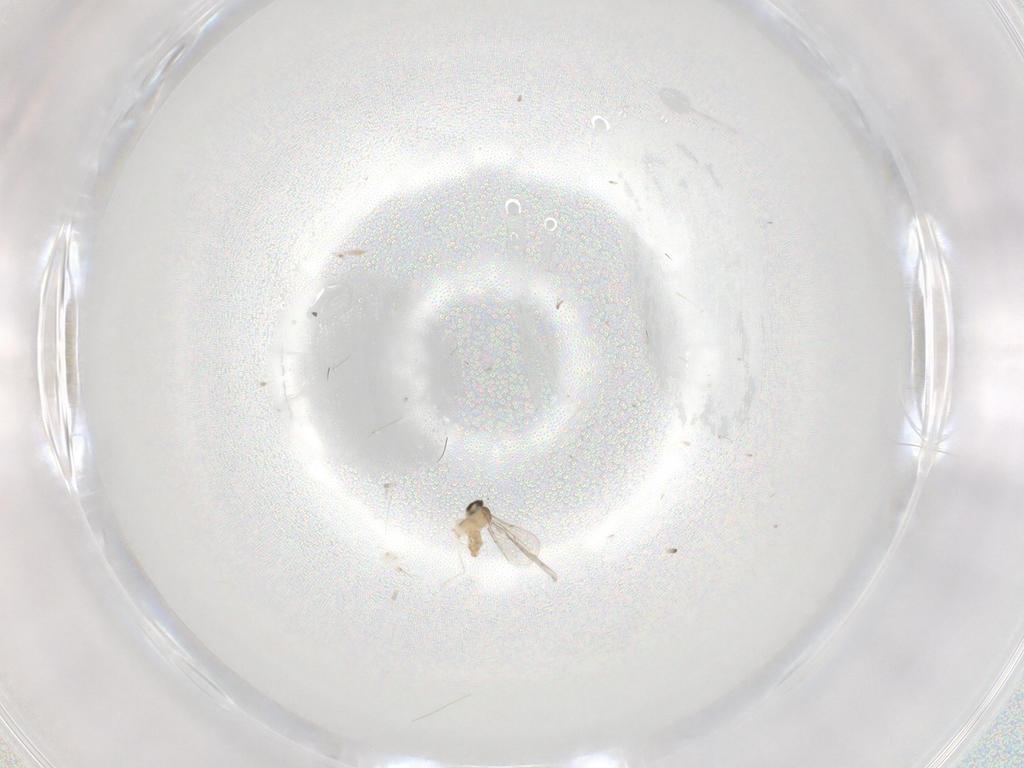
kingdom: Animalia
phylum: Arthropoda
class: Insecta
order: Diptera
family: Cecidomyiidae
